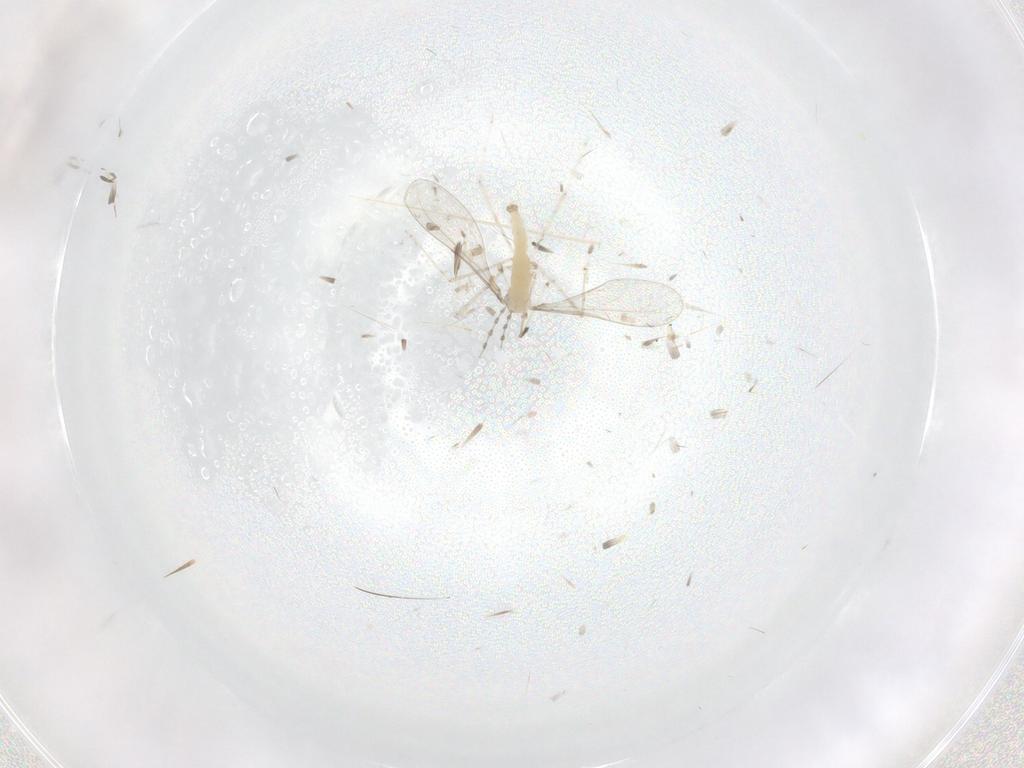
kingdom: Animalia
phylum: Arthropoda
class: Insecta
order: Diptera
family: Cecidomyiidae
